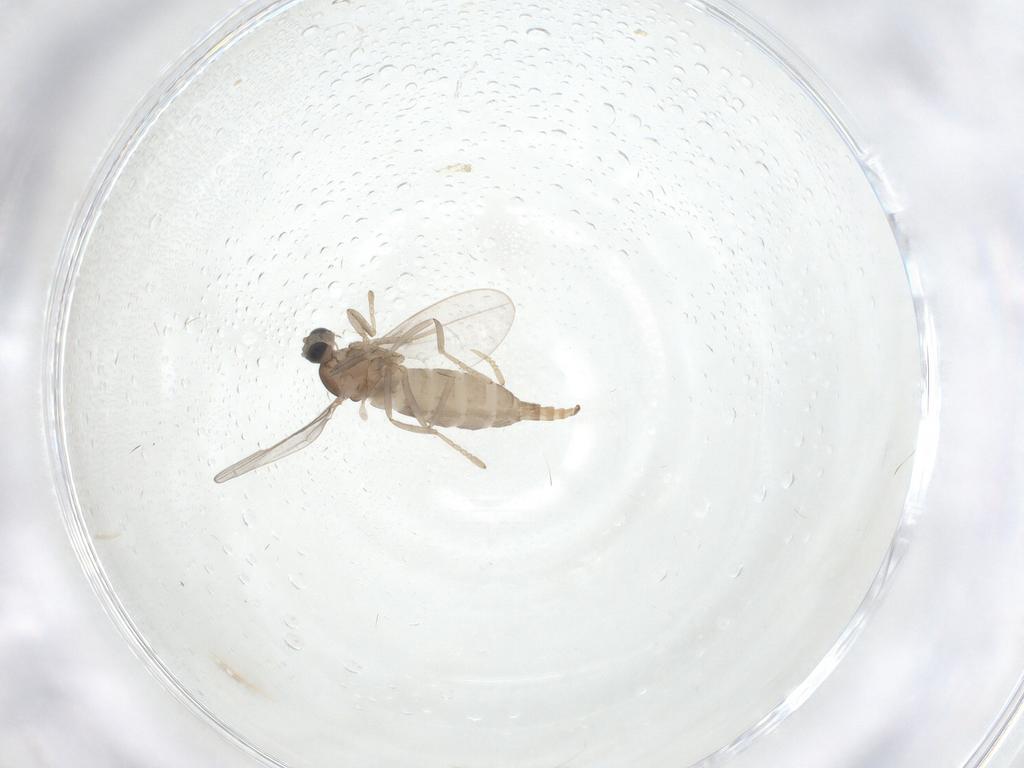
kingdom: Animalia
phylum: Arthropoda
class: Insecta
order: Diptera
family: Cecidomyiidae
